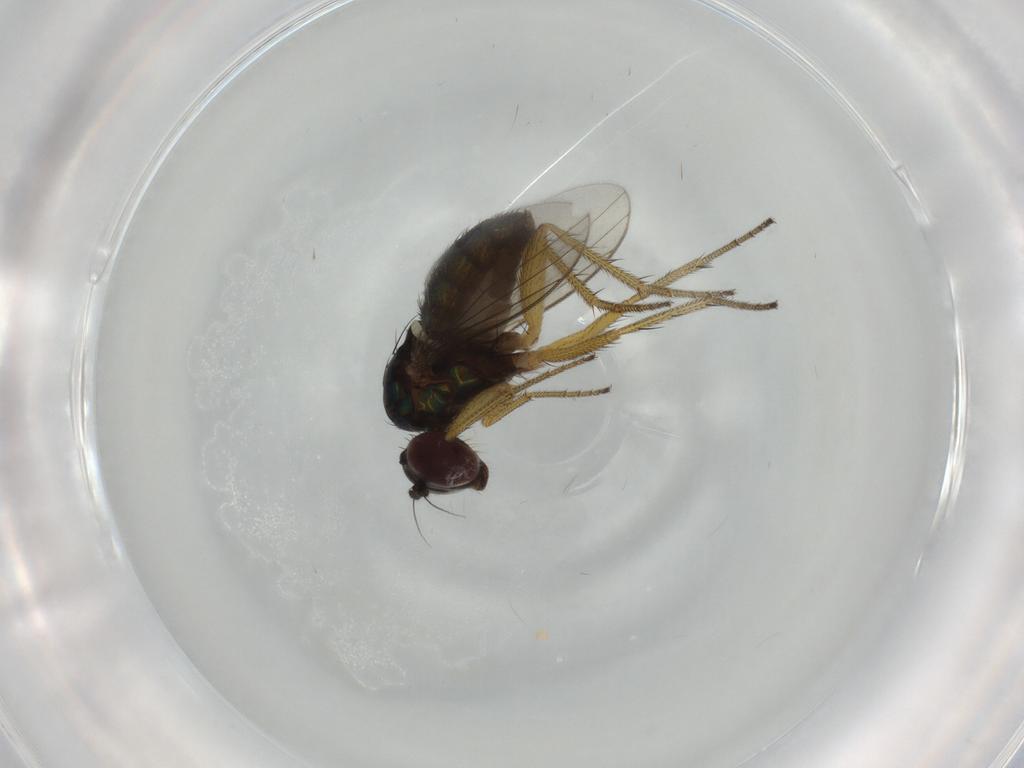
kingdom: Animalia
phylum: Arthropoda
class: Insecta
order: Diptera
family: Dolichopodidae
